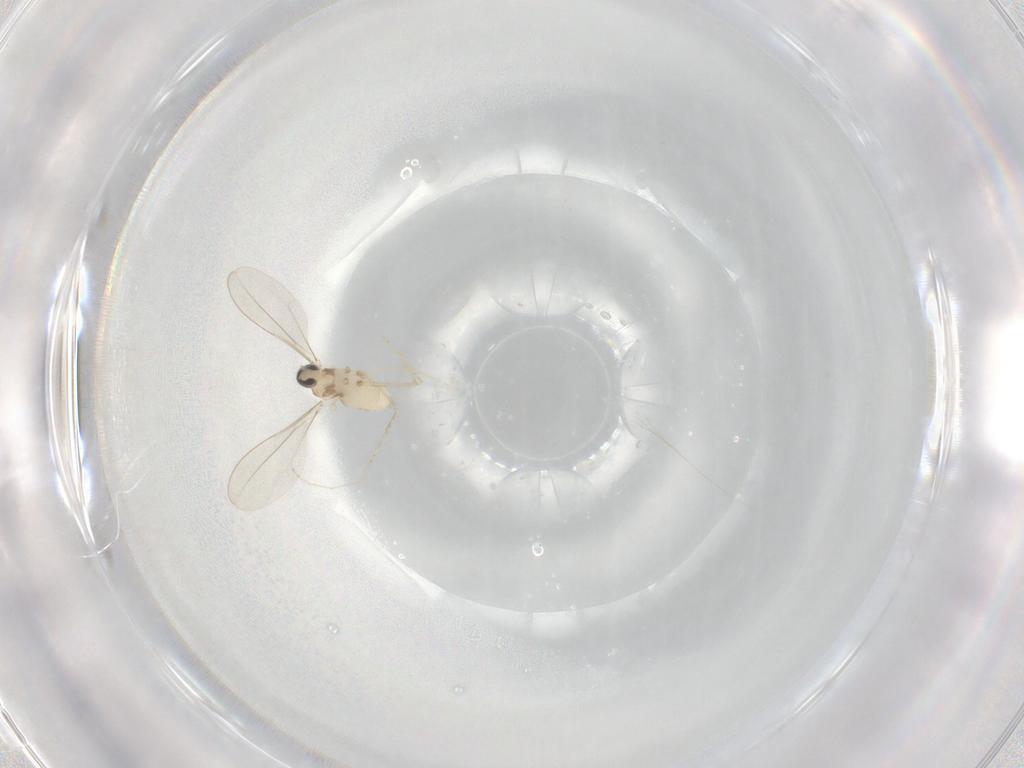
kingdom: Animalia
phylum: Arthropoda
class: Insecta
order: Diptera
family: Cecidomyiidae
